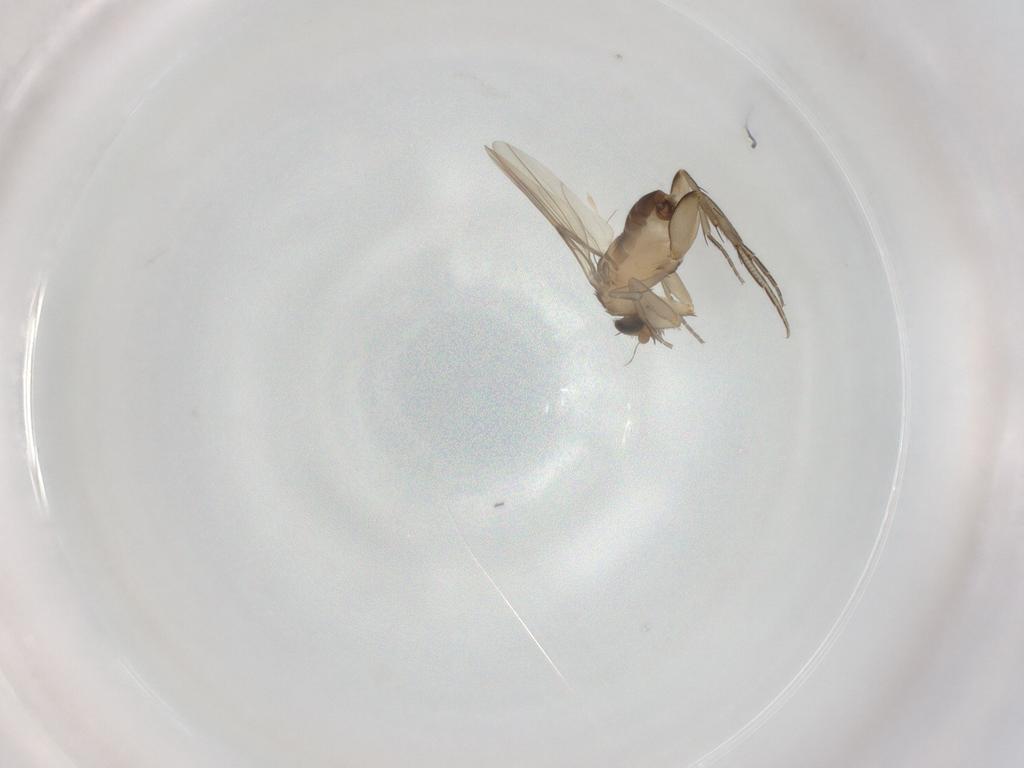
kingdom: Animalia
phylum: Arthropoda
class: Insecta
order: Diptera
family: Phoridae
